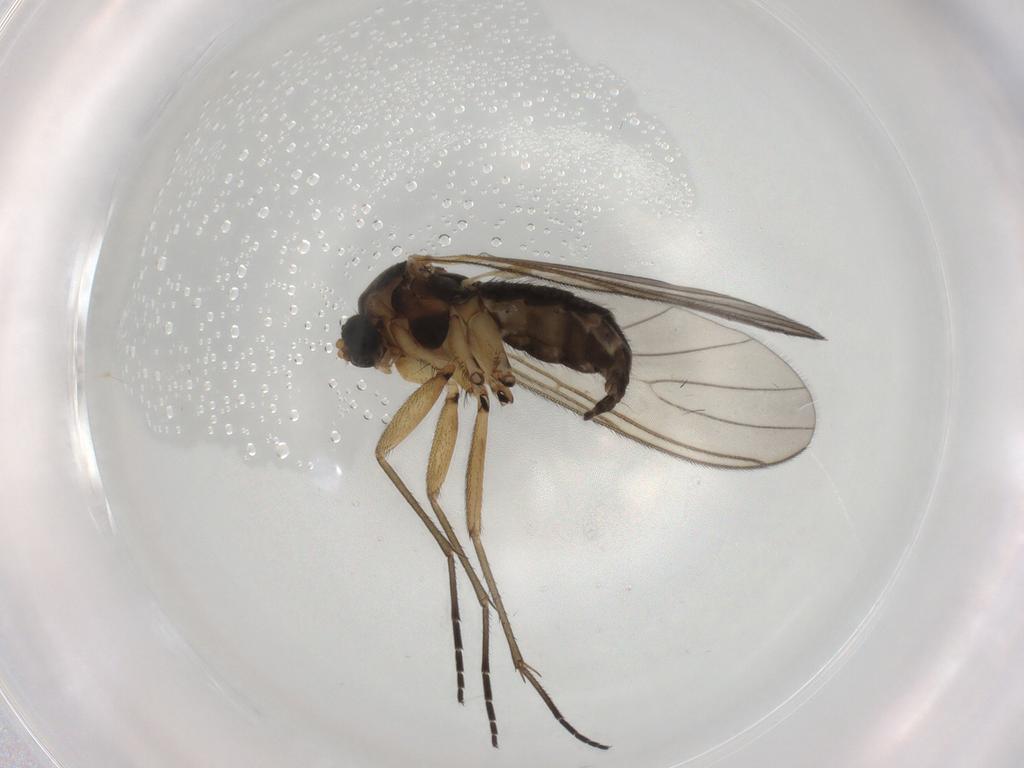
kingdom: Animalia
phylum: Arthropoda
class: Insecta
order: Diptera
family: Sciaridae
